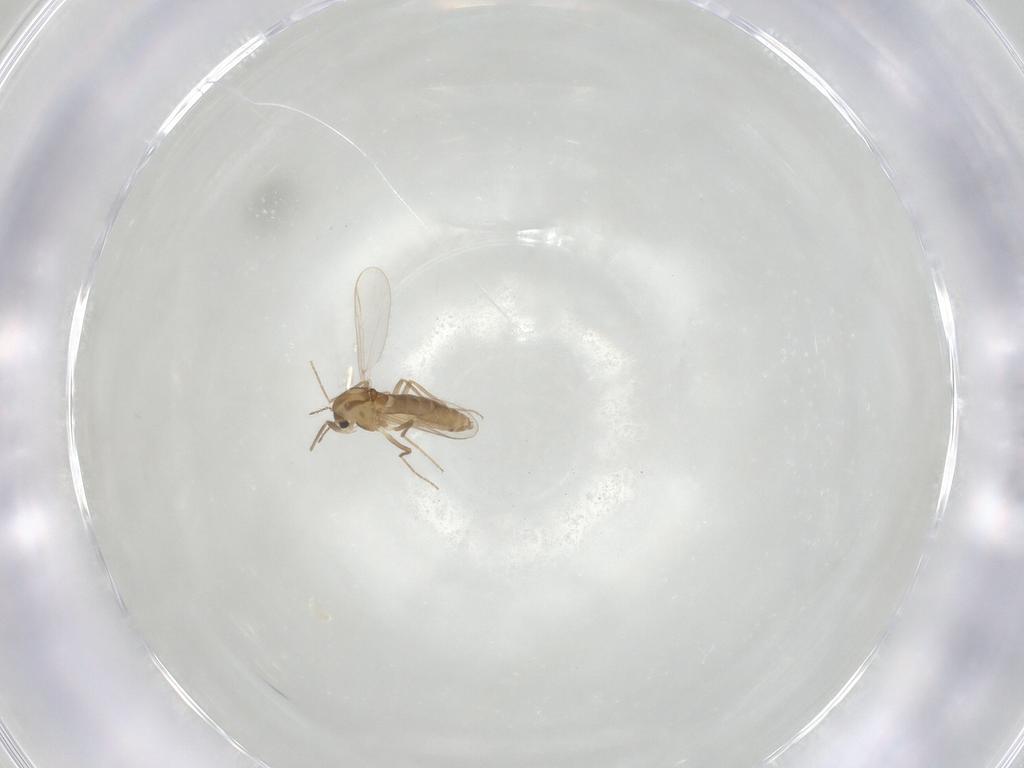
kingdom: Animalia
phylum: Arthropoda
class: Insecta
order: Diptera
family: Chironomidae
